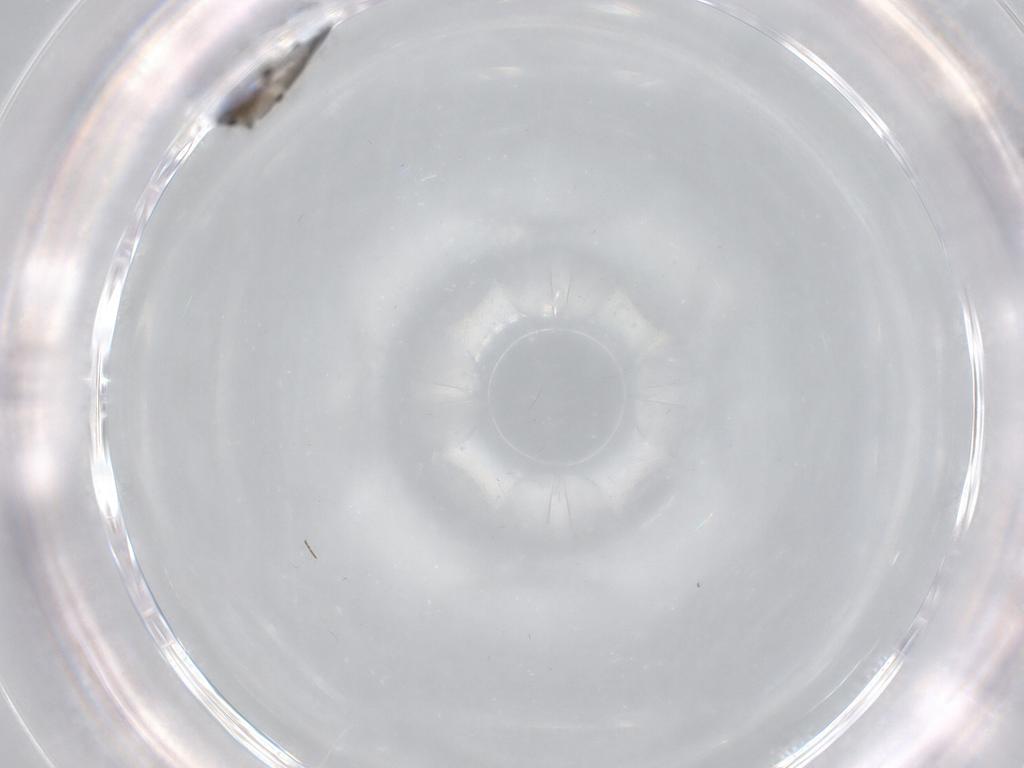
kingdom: Animalia
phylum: Arthropoda
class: Insecta
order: Diptera
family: Chironomidae
